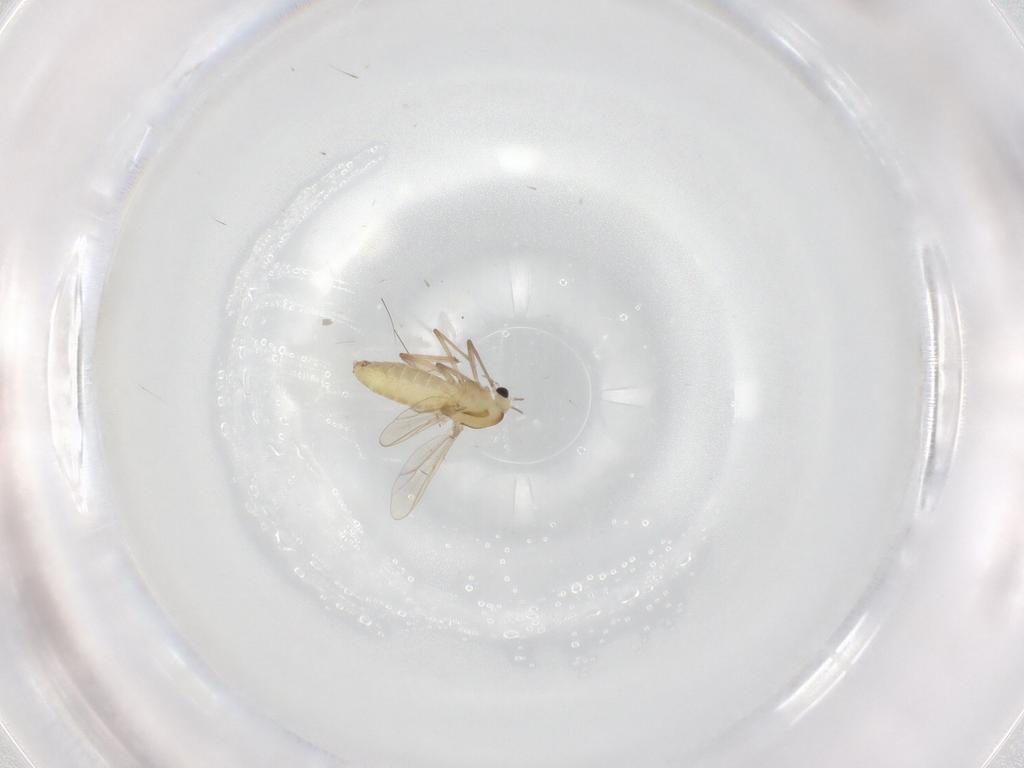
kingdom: Animalia
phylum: Arthropoda
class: Insecta
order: Diptera
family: Chironomidae
